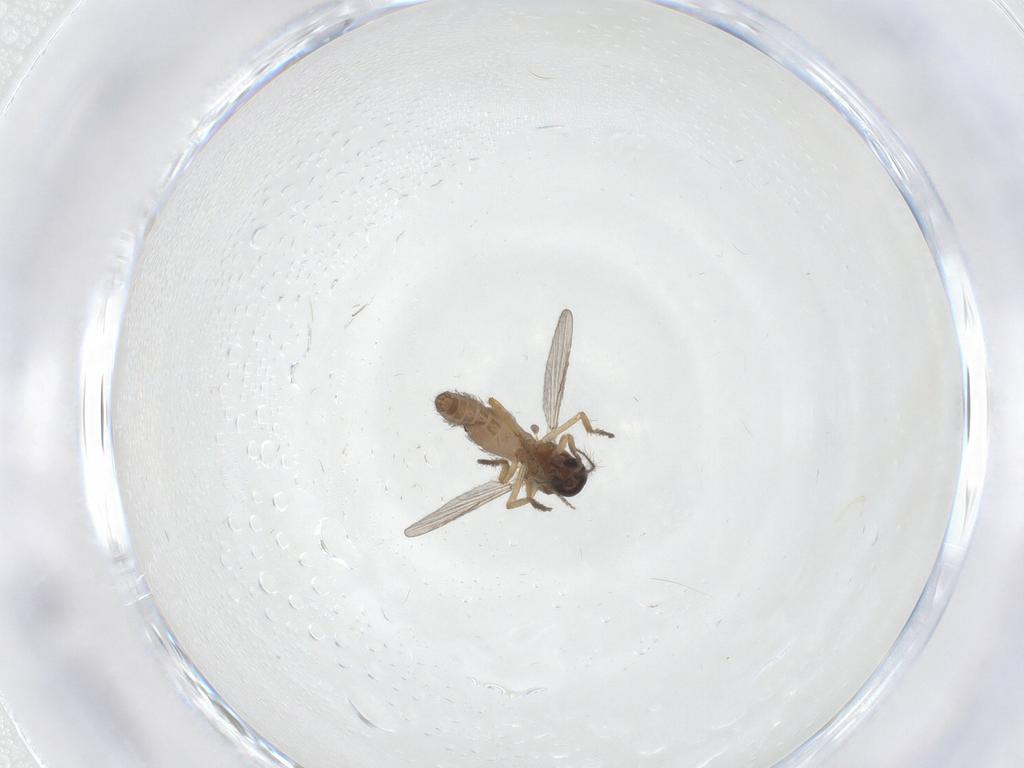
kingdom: Animalia
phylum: Arthropoda
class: Insecta
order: Diptera
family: Ceratopogonidae
